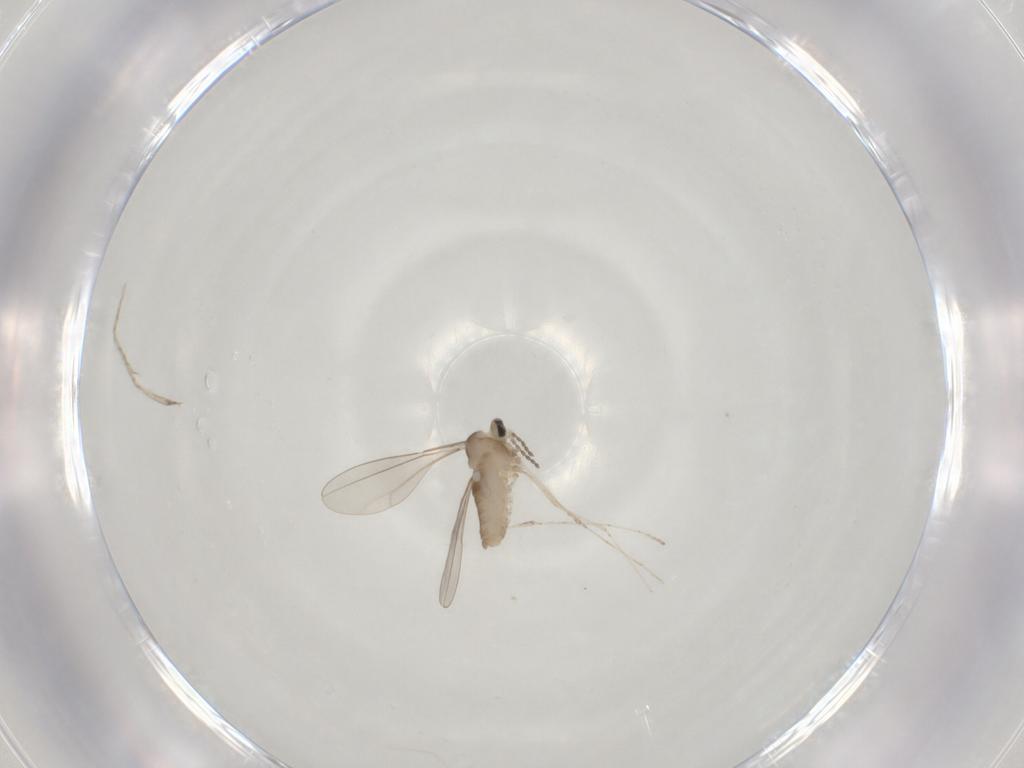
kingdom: Animalia
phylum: Arthropoda
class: Insecta
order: Diptera
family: Cecidomyiidae
